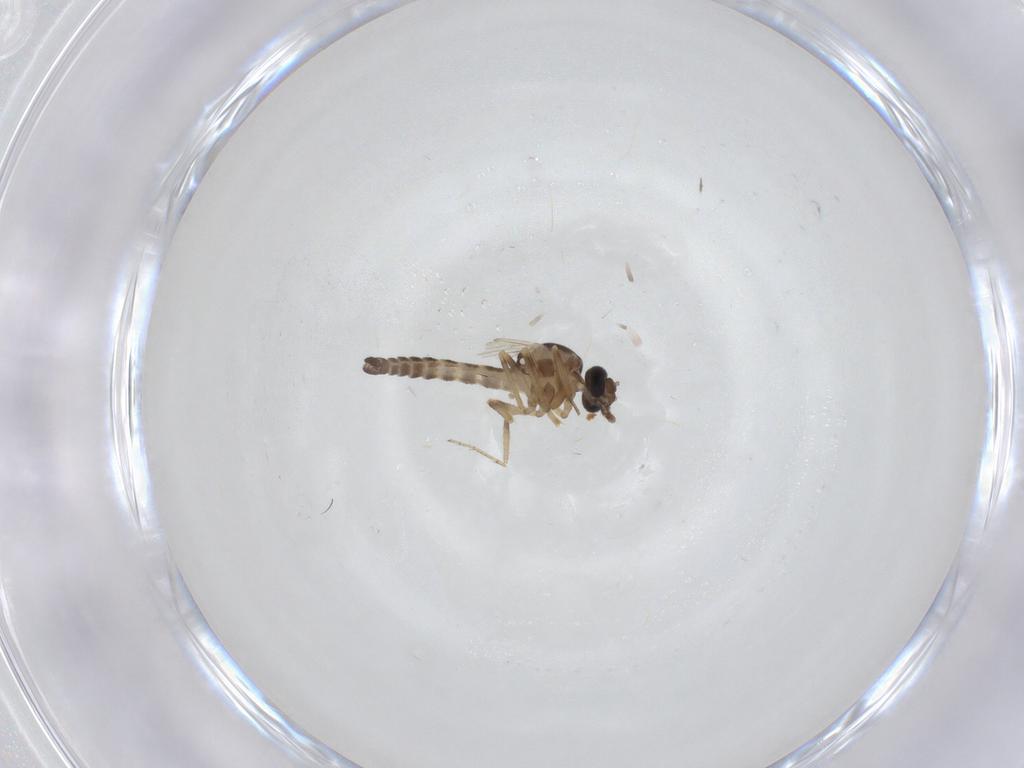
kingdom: Animalia
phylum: Arthropoda
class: Insecta
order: Diptera
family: Ceratopogonidae
